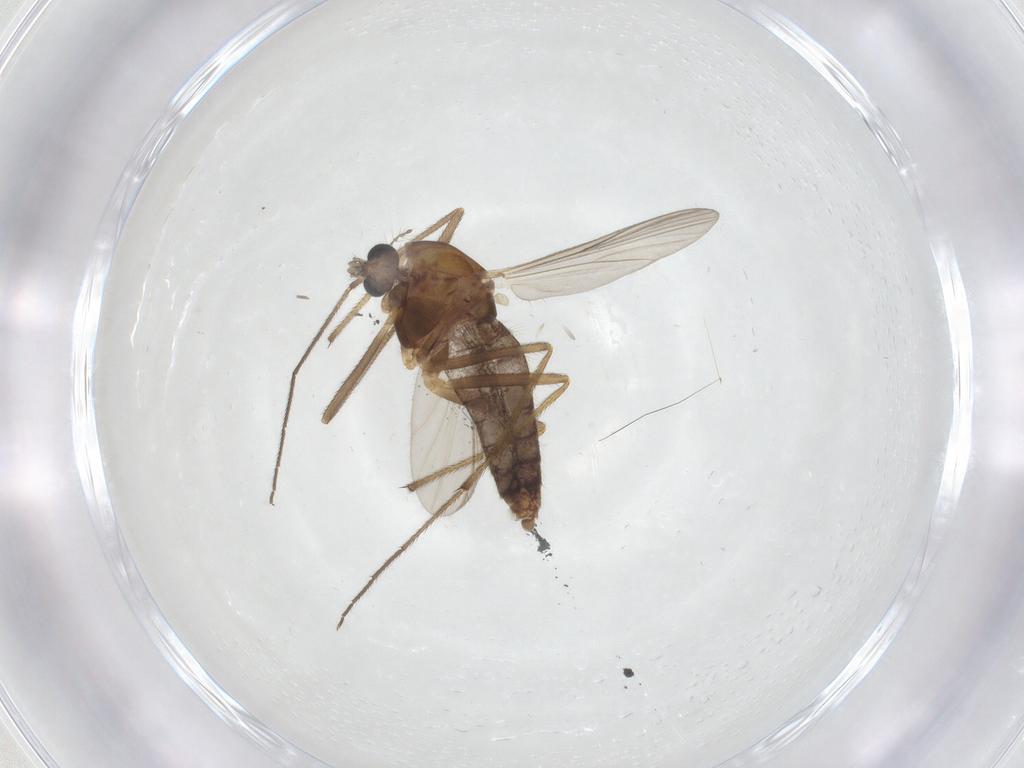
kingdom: Animalia
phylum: Arthropoda
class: Insecta
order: Diptera
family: Chironomidae
